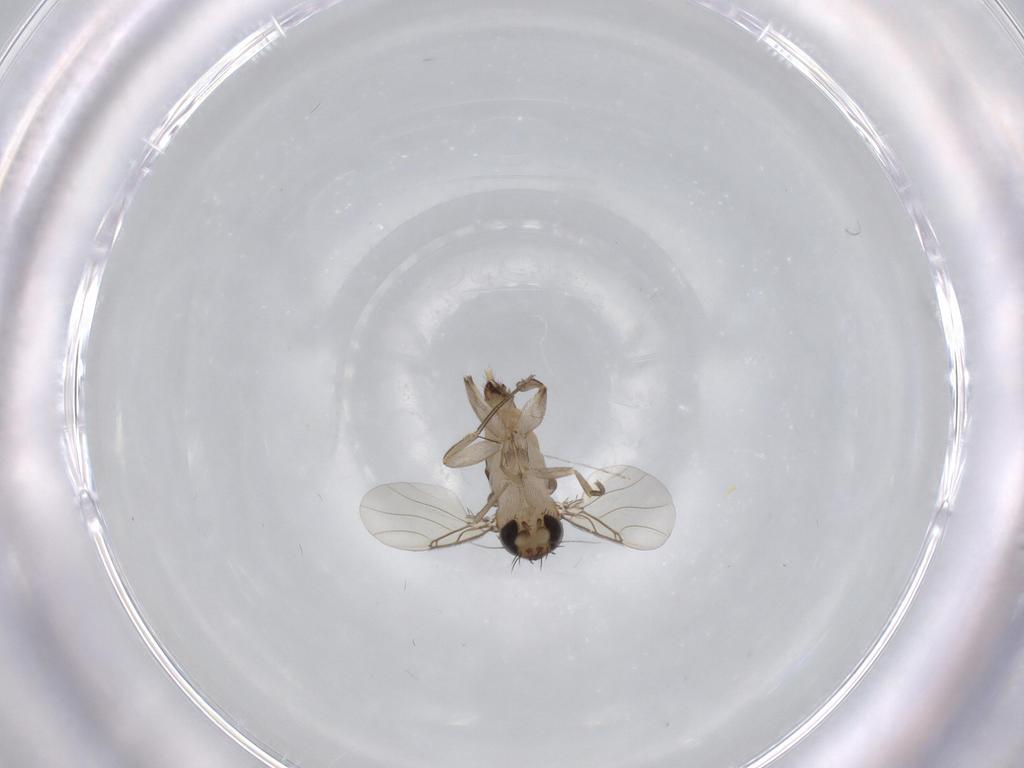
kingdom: Animalia
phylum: Arthropoda
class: Insecta
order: Diptera
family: Phoridae
